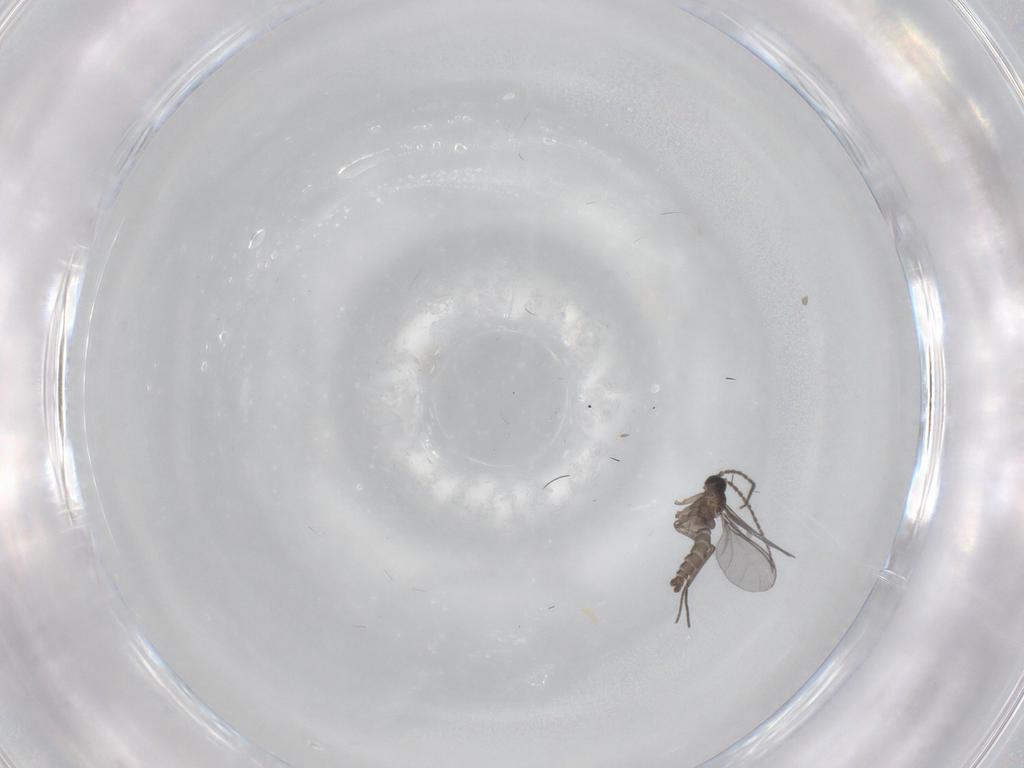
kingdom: Animalia
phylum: Arthropoda
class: Insecta
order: Diptera
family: Sciaridae
